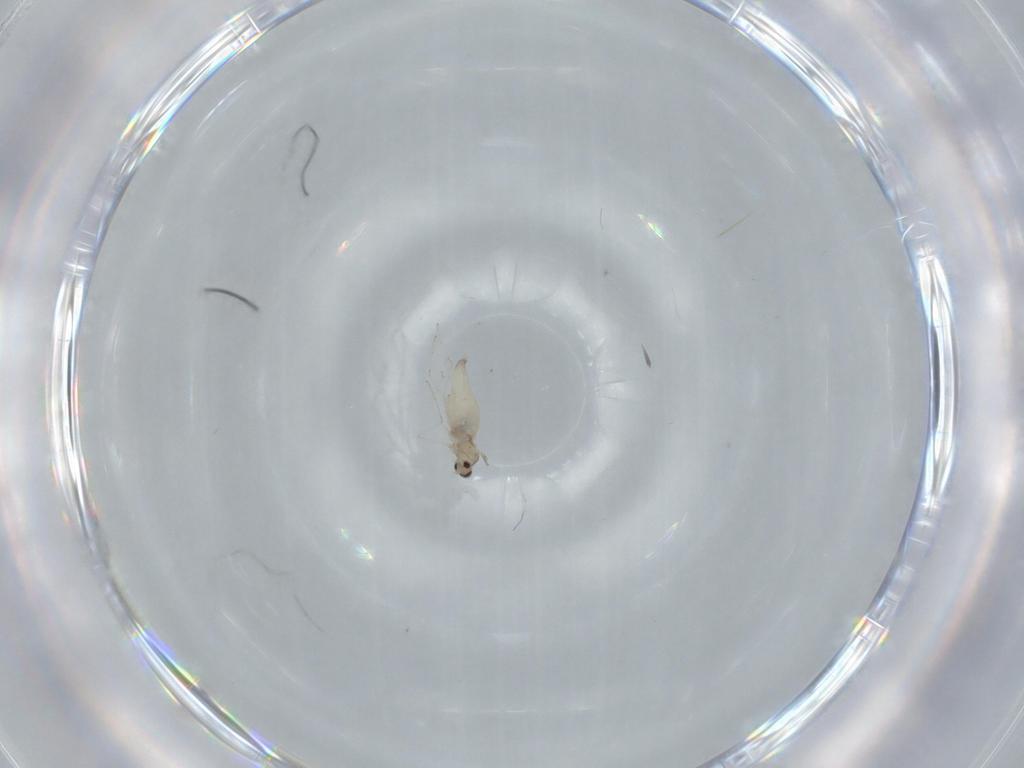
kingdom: Animalia
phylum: Arthropoda
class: Insecta
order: Diptera
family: Cecidomyiidae
